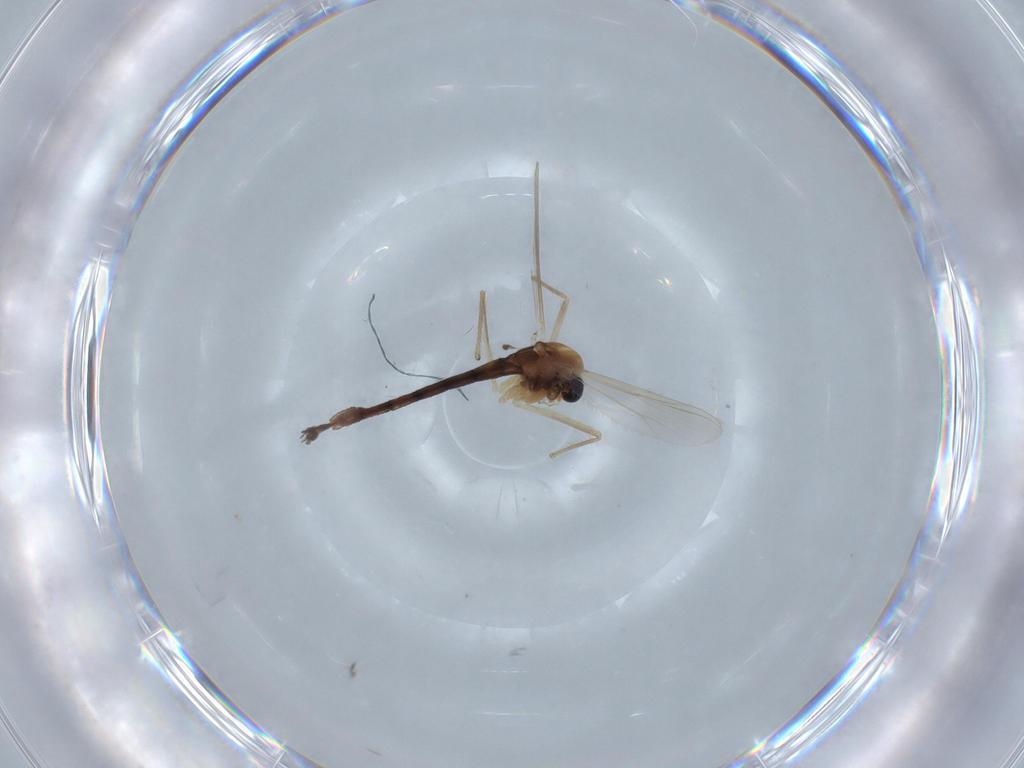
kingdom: Animalia
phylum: Arthropoda
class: Insecta
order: Diptera
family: Chironomidae
